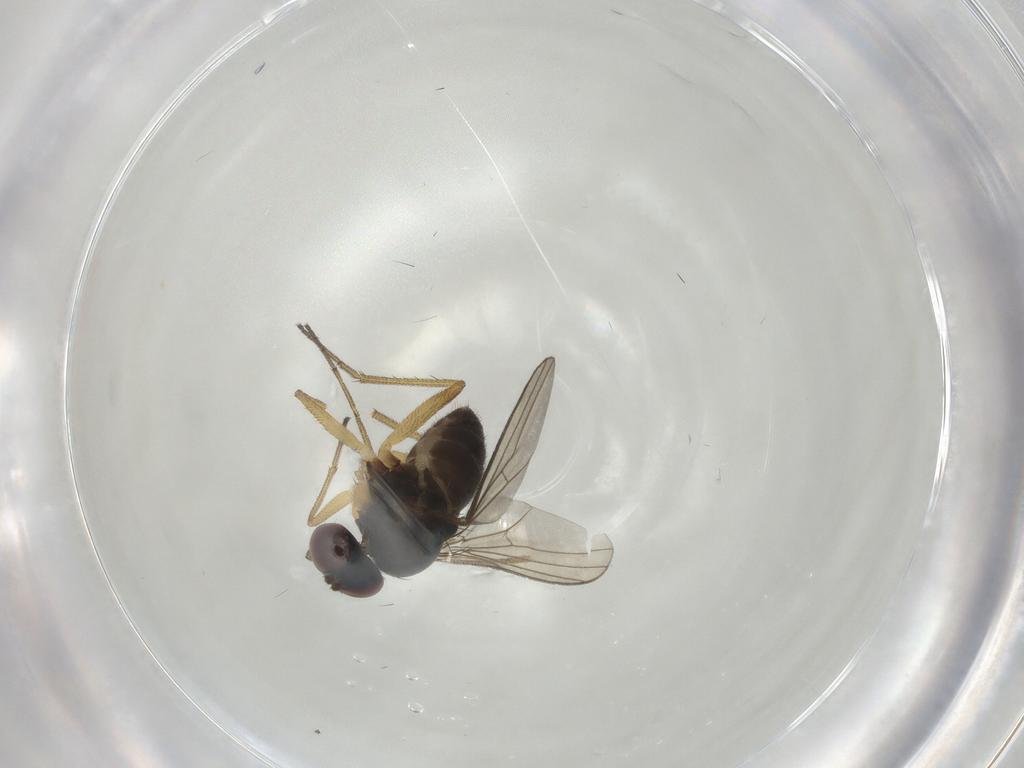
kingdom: Animalia
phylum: Arthropoda
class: Insecta
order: Diptera
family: Dolichopodidae
